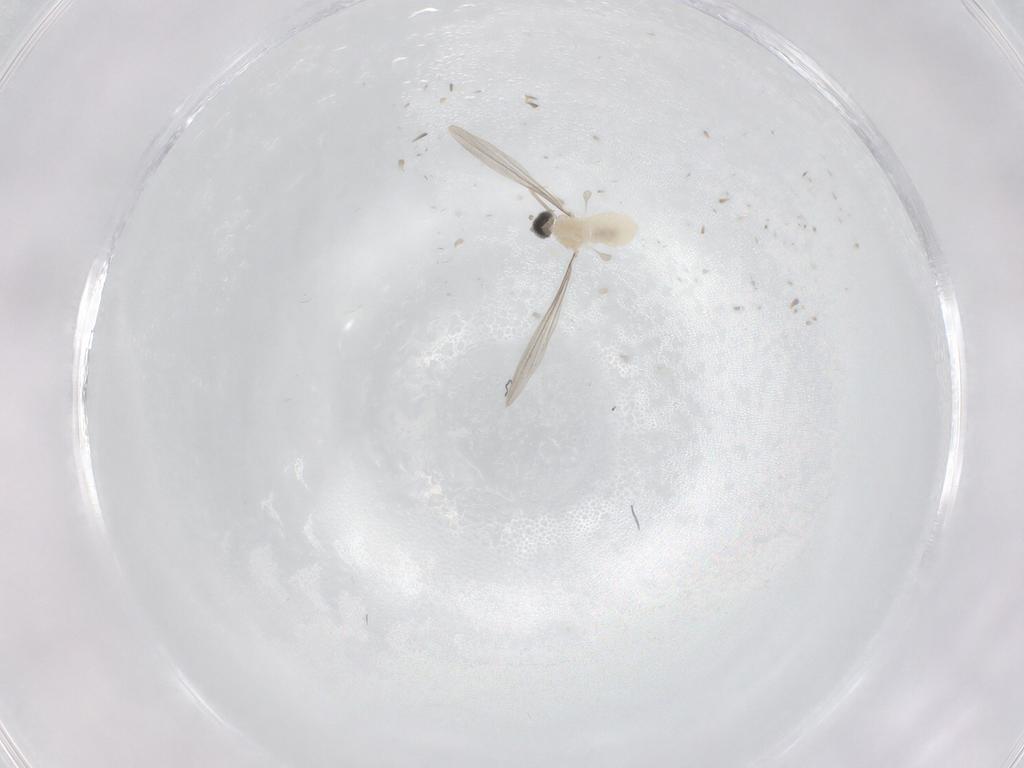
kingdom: Animalia
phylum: Arthropoda
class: Insecta
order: Diptera
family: Cecidomyiidae
